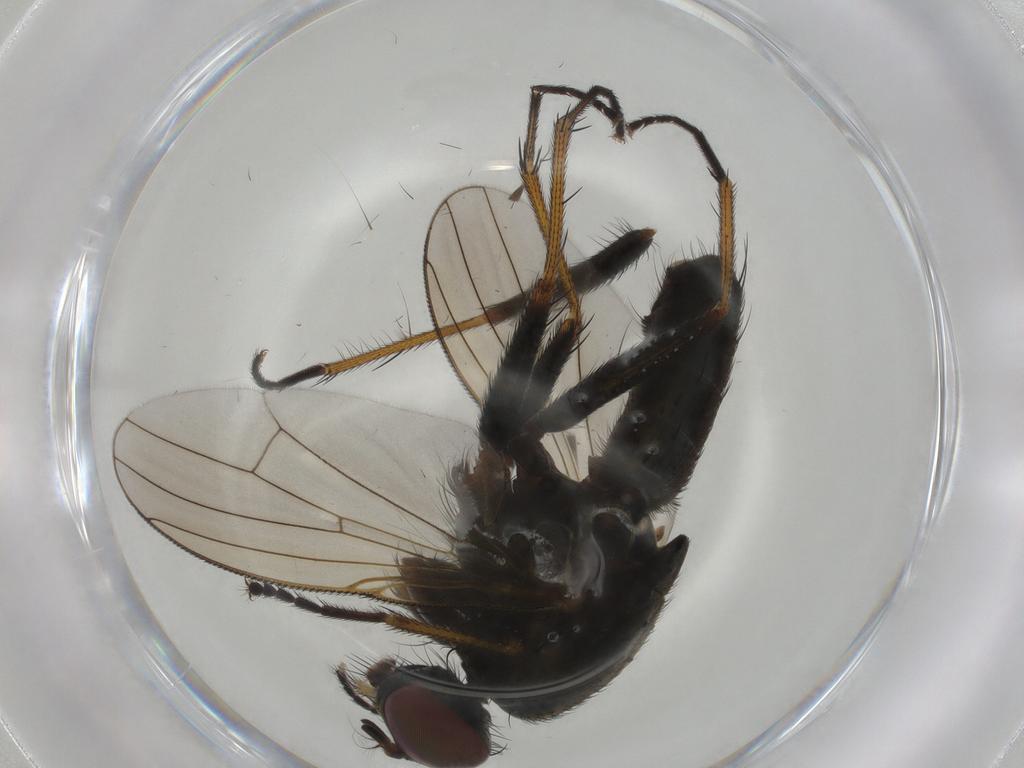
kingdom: Animalia
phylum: Arthropoda
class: Insecta
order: Diptera
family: Muscidae
